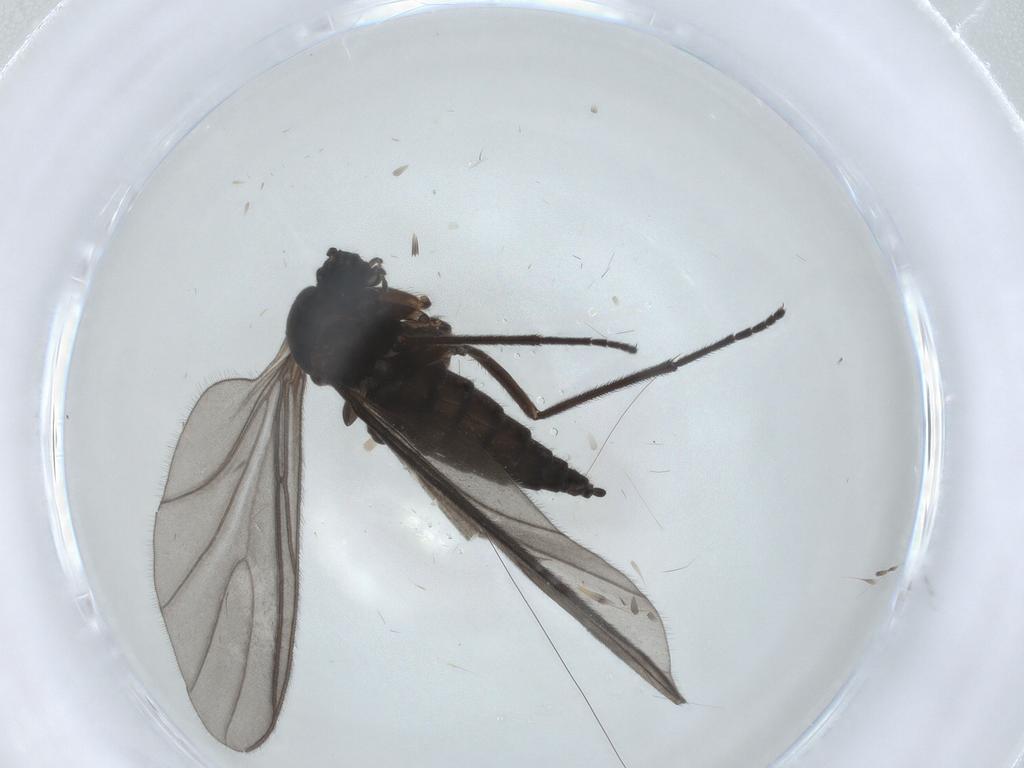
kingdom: Animalia
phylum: Arthropoda
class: Insecta
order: Diptera
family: Sciaridae
